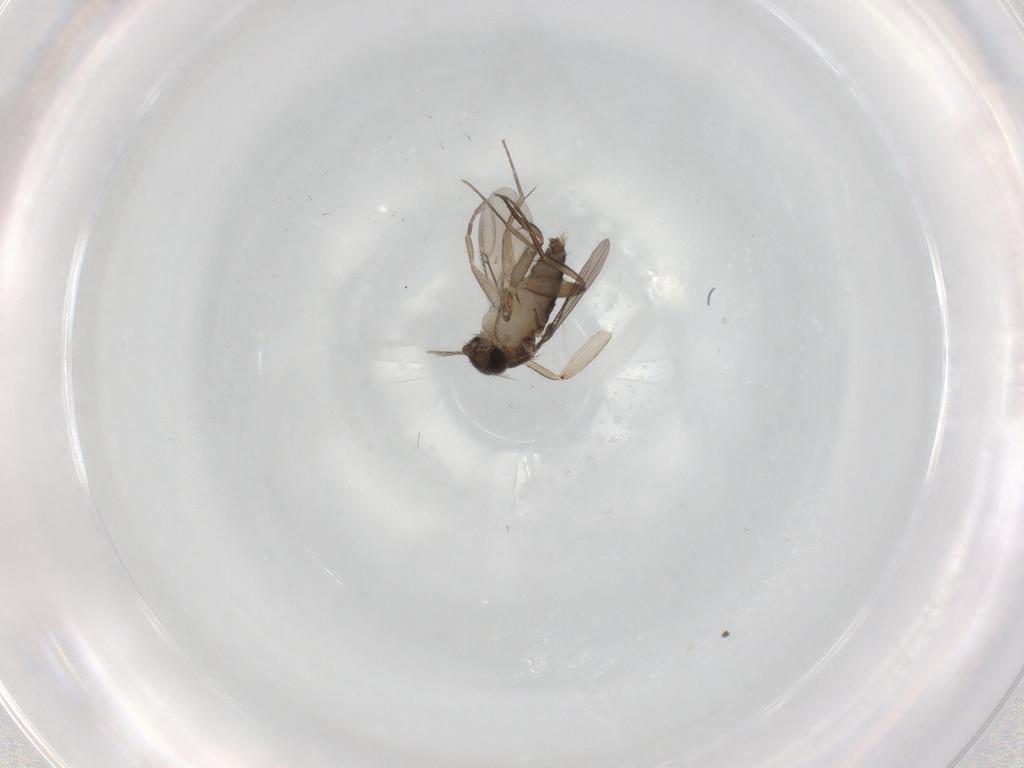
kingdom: Animalia
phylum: Arthropoda
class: Insecta
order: Diptera
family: Phoridae
